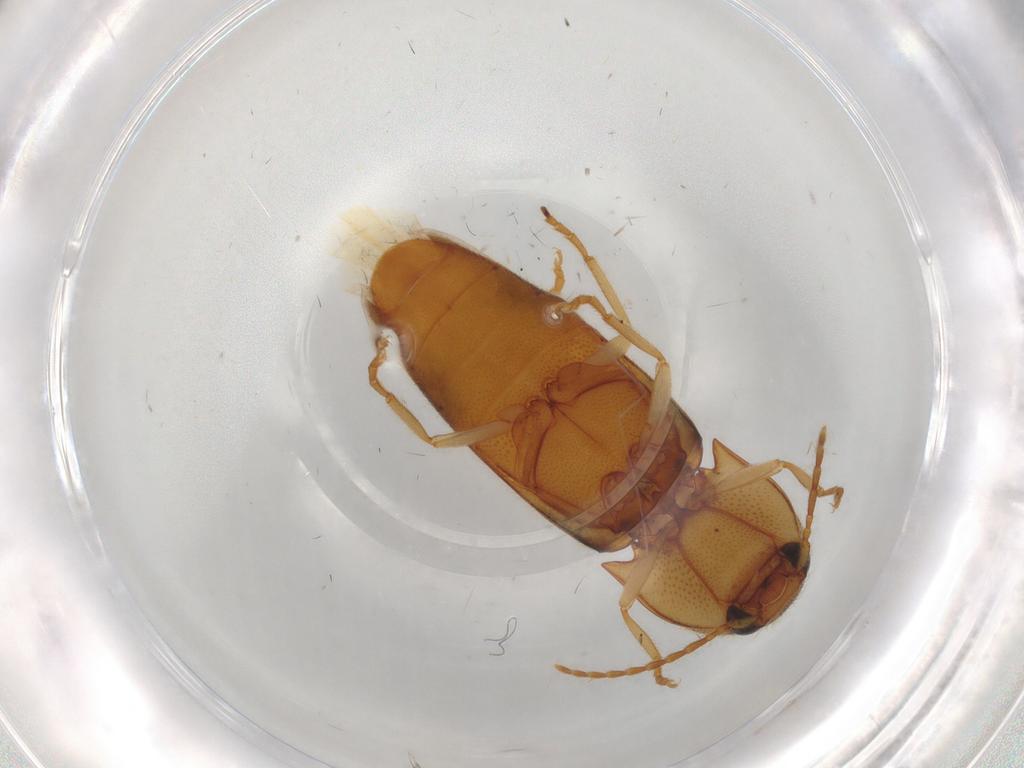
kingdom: Animalia
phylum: Arthropoda
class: Insecta
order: Coleoptera
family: Elateridae
